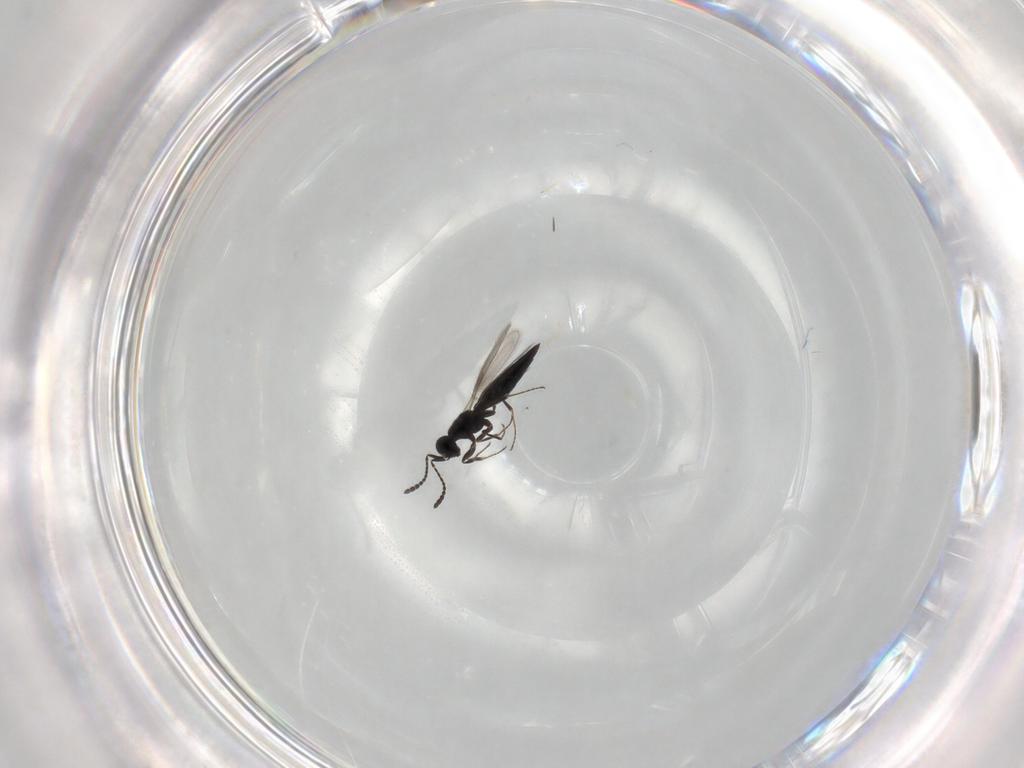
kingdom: Animalia
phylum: Arthropoda
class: Insecta
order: Hymenoptera
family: Scelionidae
